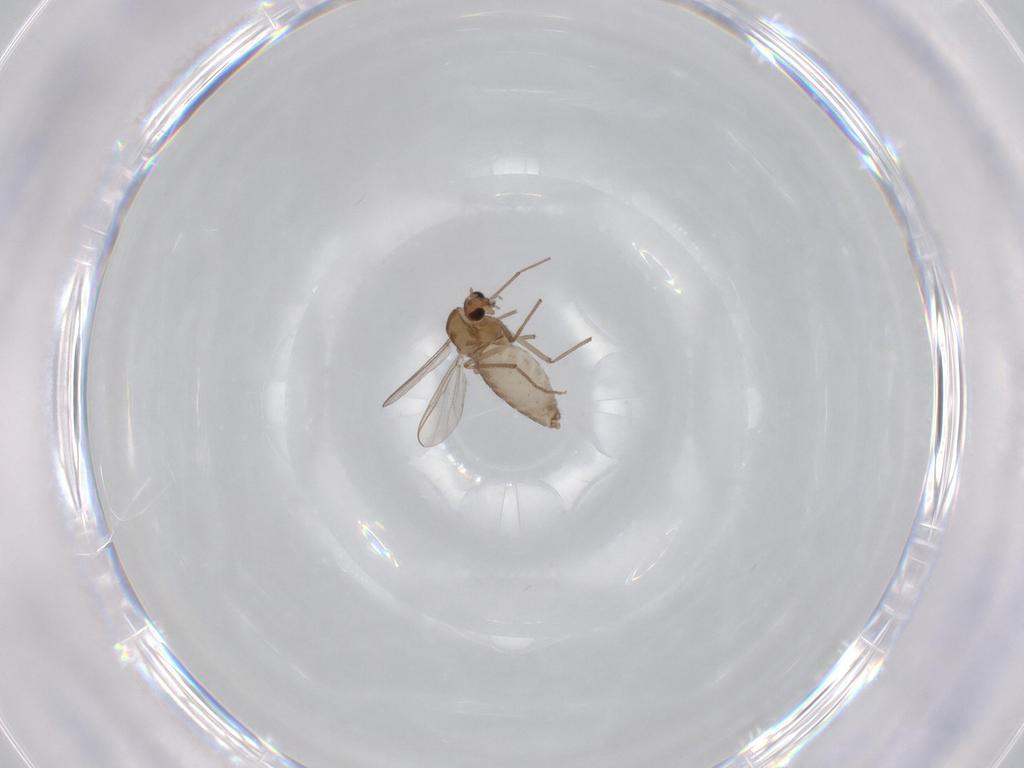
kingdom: Animalia
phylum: Arthropoda
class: Insecta
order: Diptera
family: Chironomidae
